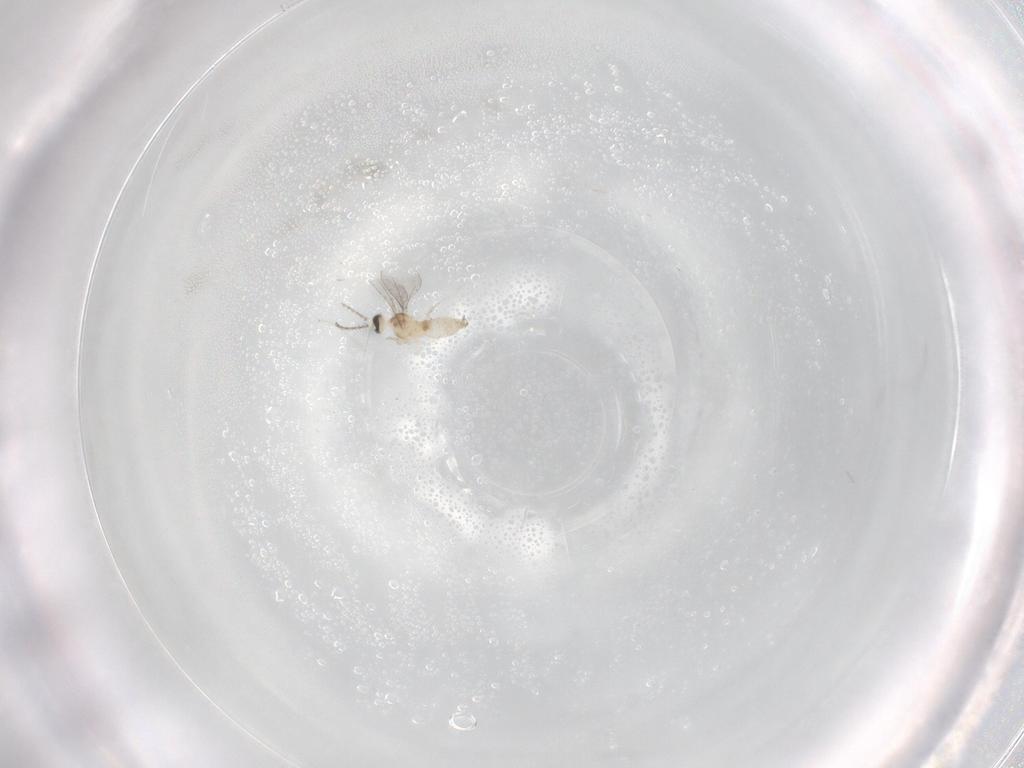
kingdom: Animalia
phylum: Arthropoda
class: Insecta
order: Diptera
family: Cecidomyiidae
